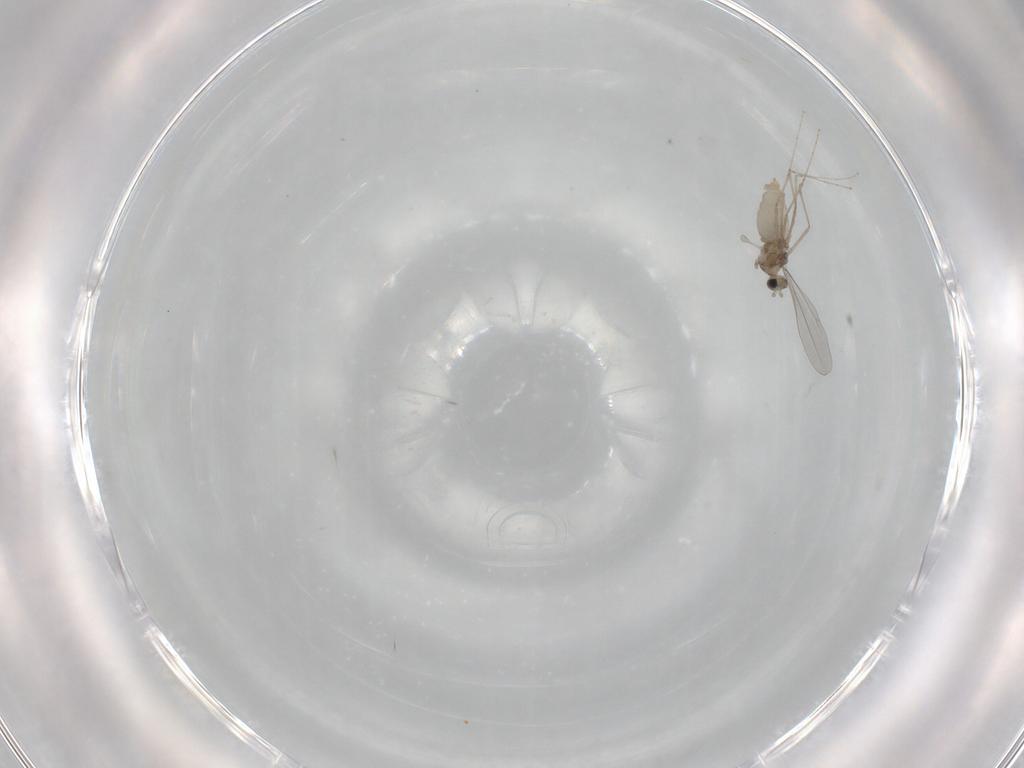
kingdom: Animalia
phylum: Arthropoda
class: Insecta
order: Diptera
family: Cecidomyiidae
